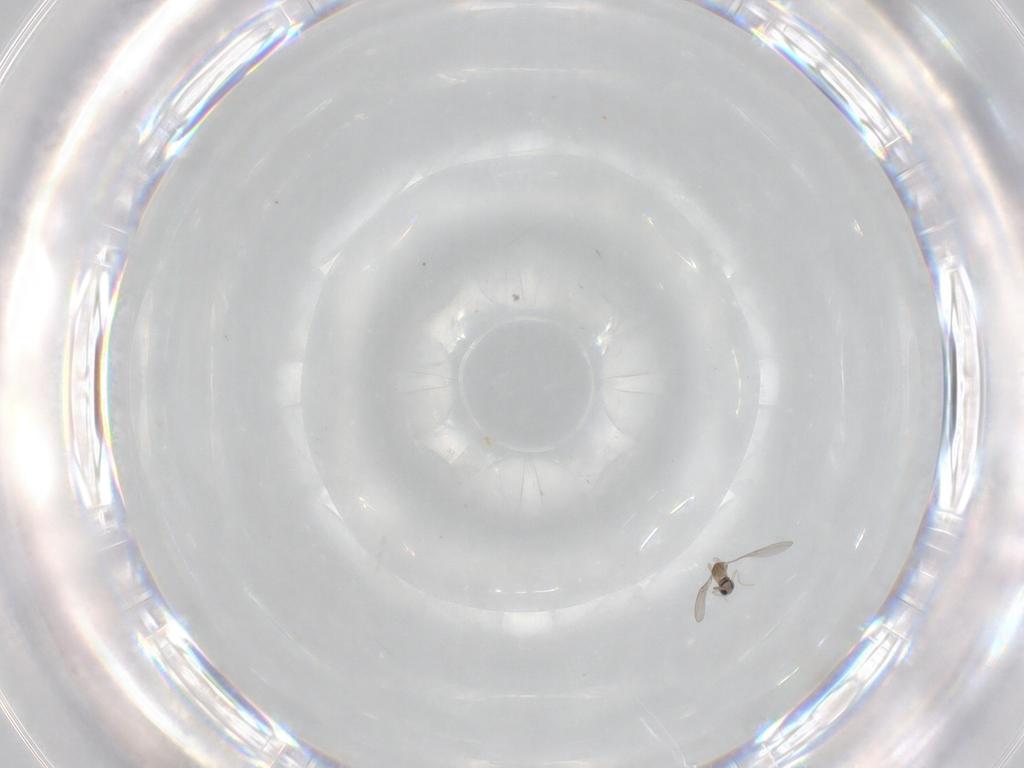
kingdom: Animalia
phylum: Arthropoda
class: Insecta
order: Diptera
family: Cecidomyiidae
